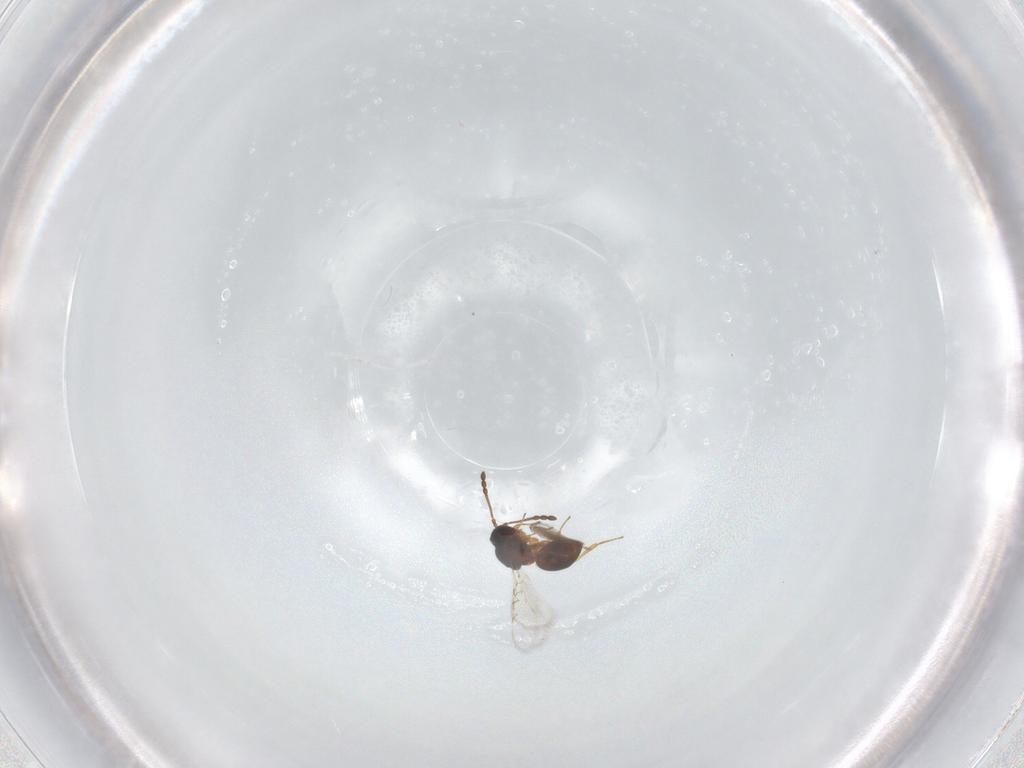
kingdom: Animalia
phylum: Arthropoda
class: Insecta
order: Hymenoptera
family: Figitidae
